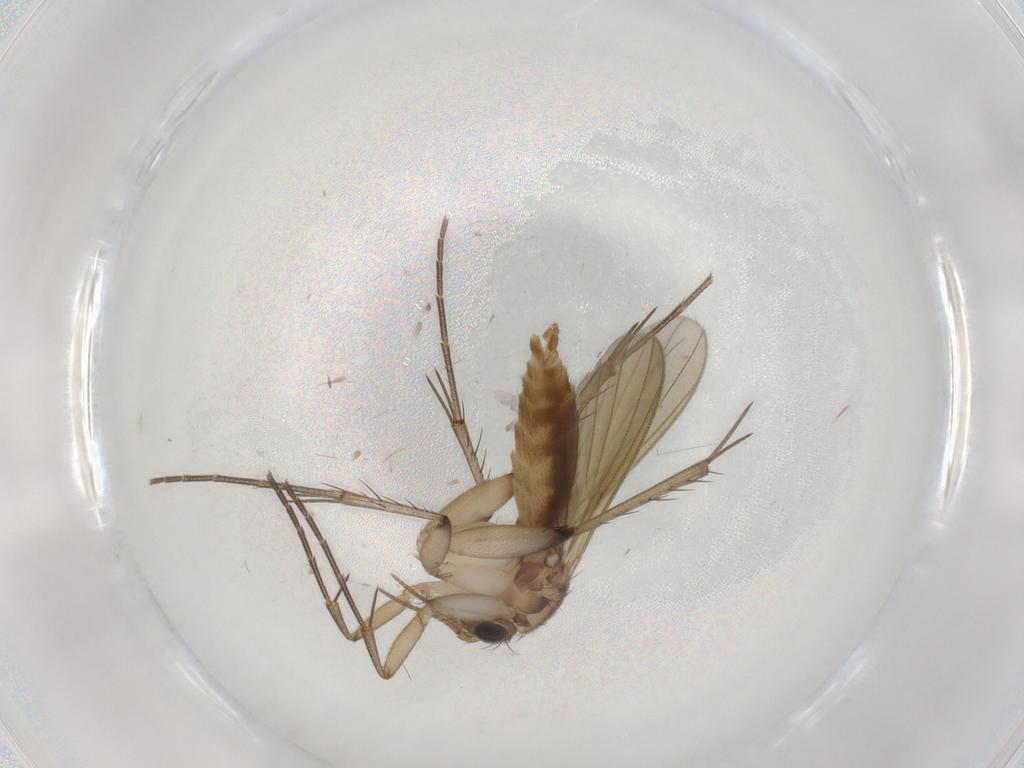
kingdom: Animalia
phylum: Arthropoda
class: Insecta
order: Diptera
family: Mycetophilidae
